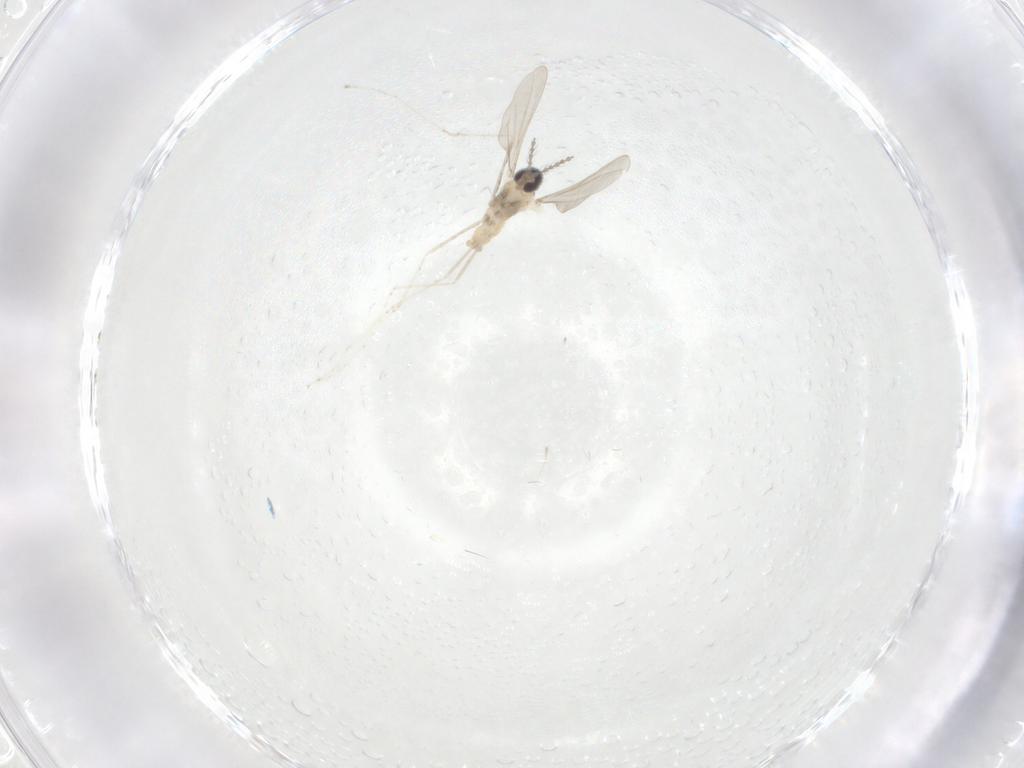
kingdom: Animalia
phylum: Arthropoda
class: Insecta
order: Diptera
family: Cecidomyiidae
